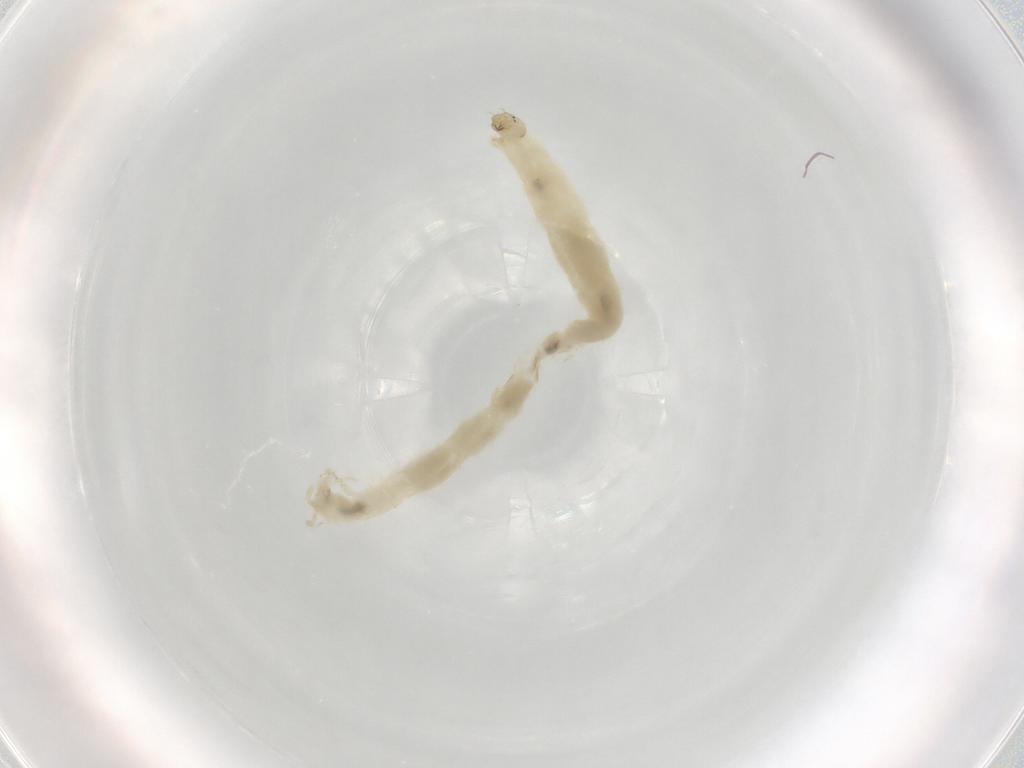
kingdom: Animalia
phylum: Arthropoda
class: Insecta
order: Diptera
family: Chironomidae
